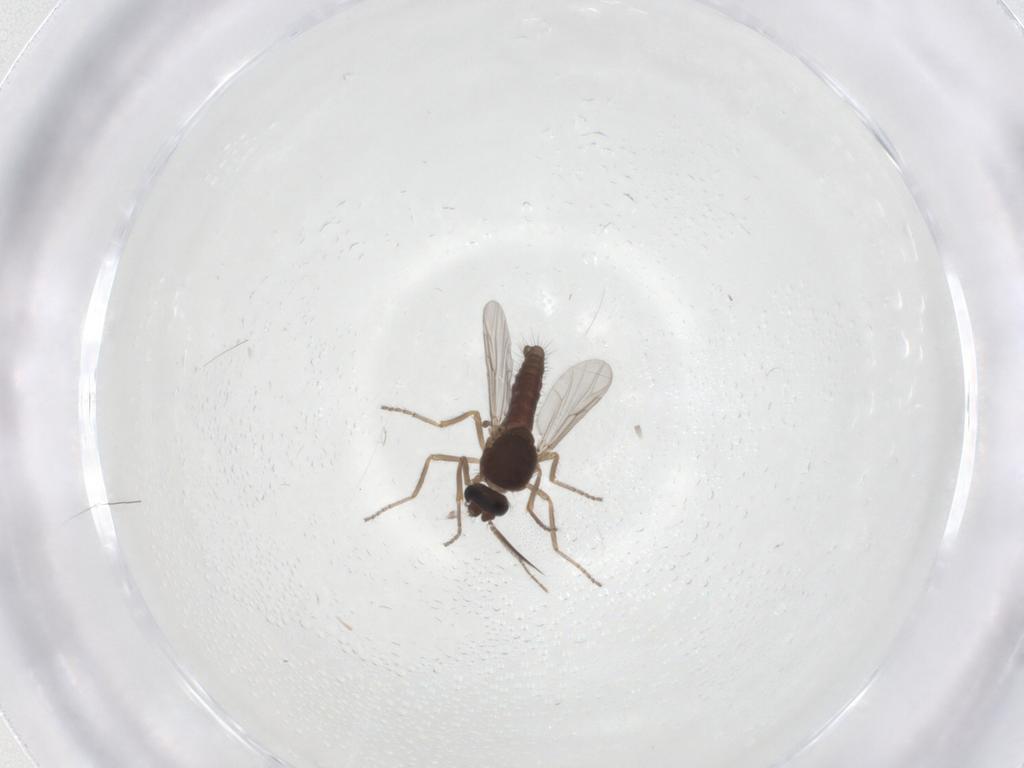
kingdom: Animalia
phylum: Arthropoda
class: Insecta
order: Diptera
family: Ceratopogonidae
